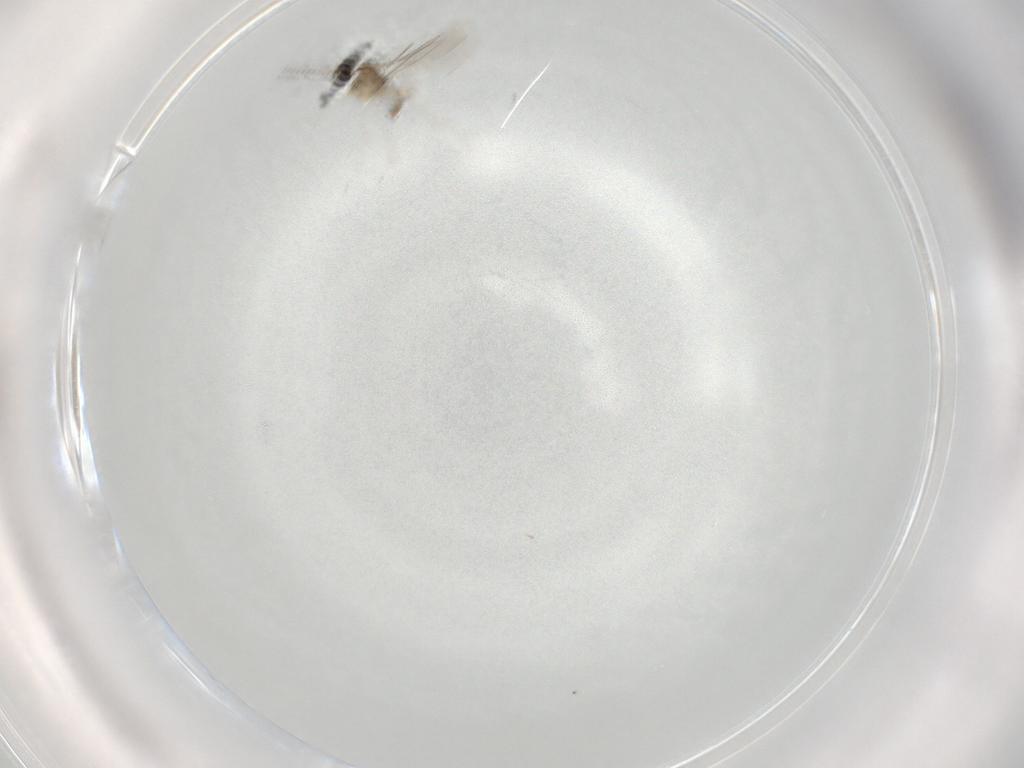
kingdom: Animalia
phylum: Arthropoda
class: Insecta
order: Diptera
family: Cecidomyiidae
